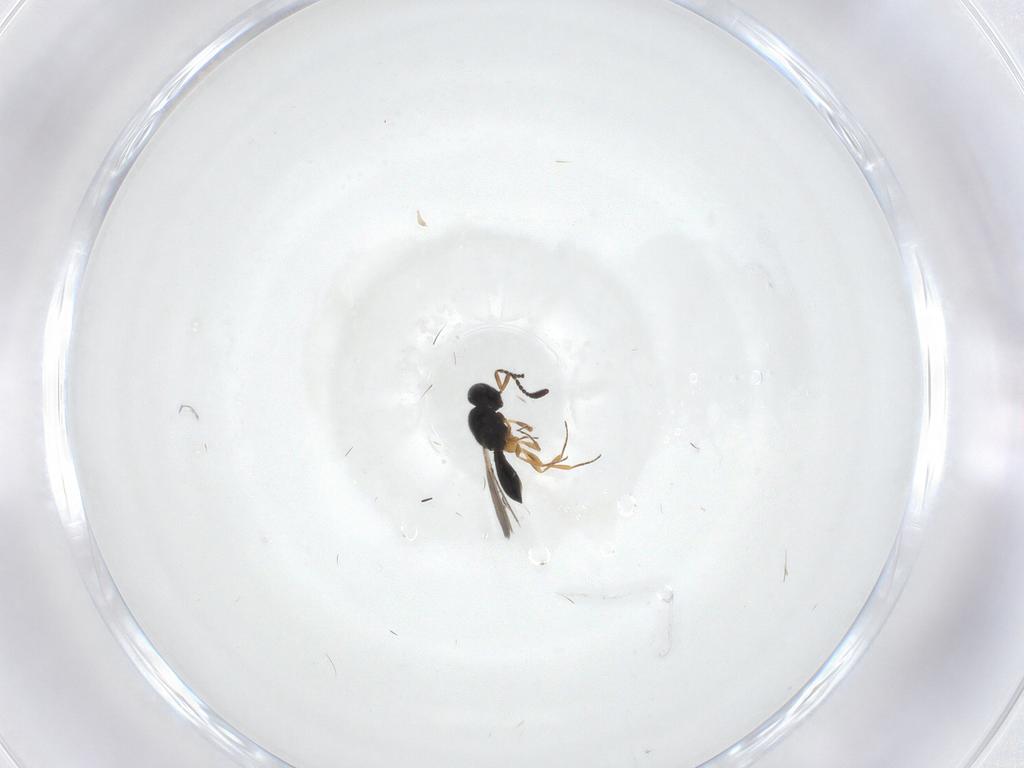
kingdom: Animalia
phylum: Arthropoda
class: Insecta
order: Hymenoptera
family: Scelionidae
